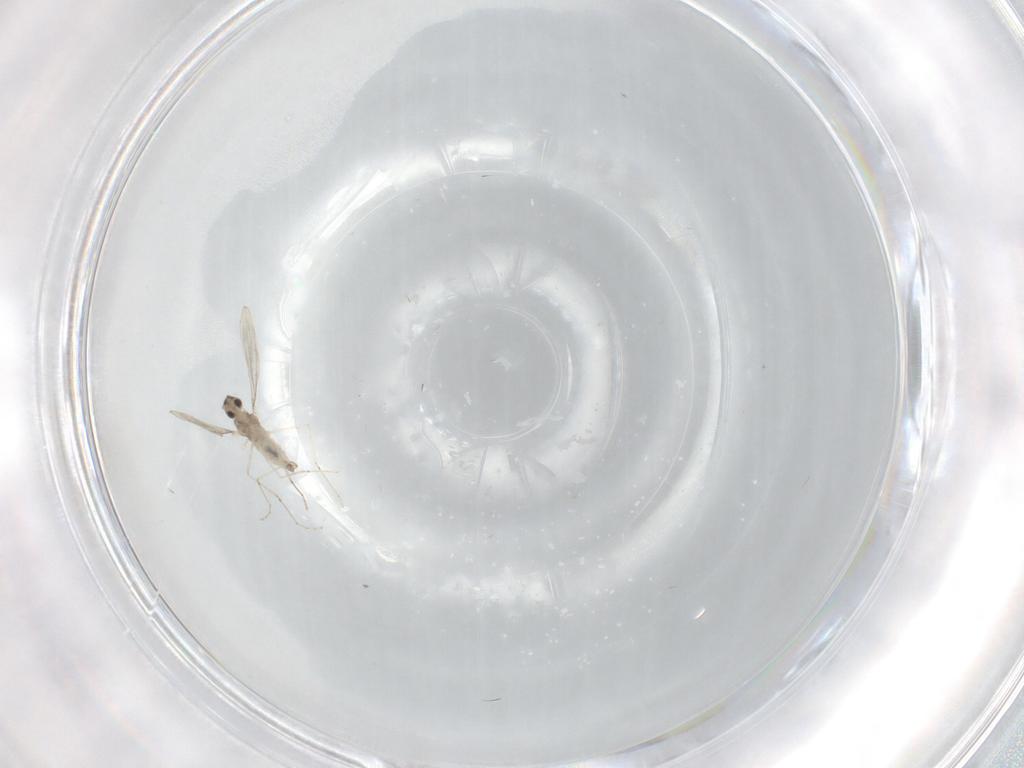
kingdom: Animalia
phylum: Arthropoda
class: Insecta
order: Diptera
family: Cecidomyiidae
